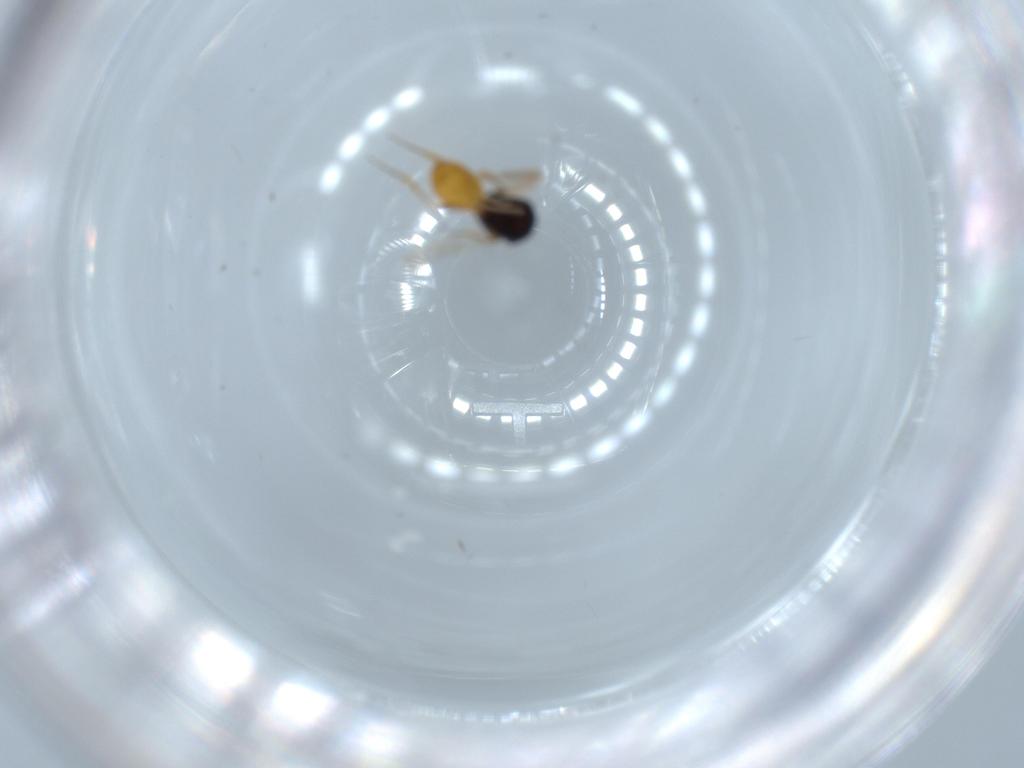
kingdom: Animalia
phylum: Arthropoda
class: Insecta
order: Hymenoptera
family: Scelionidae
